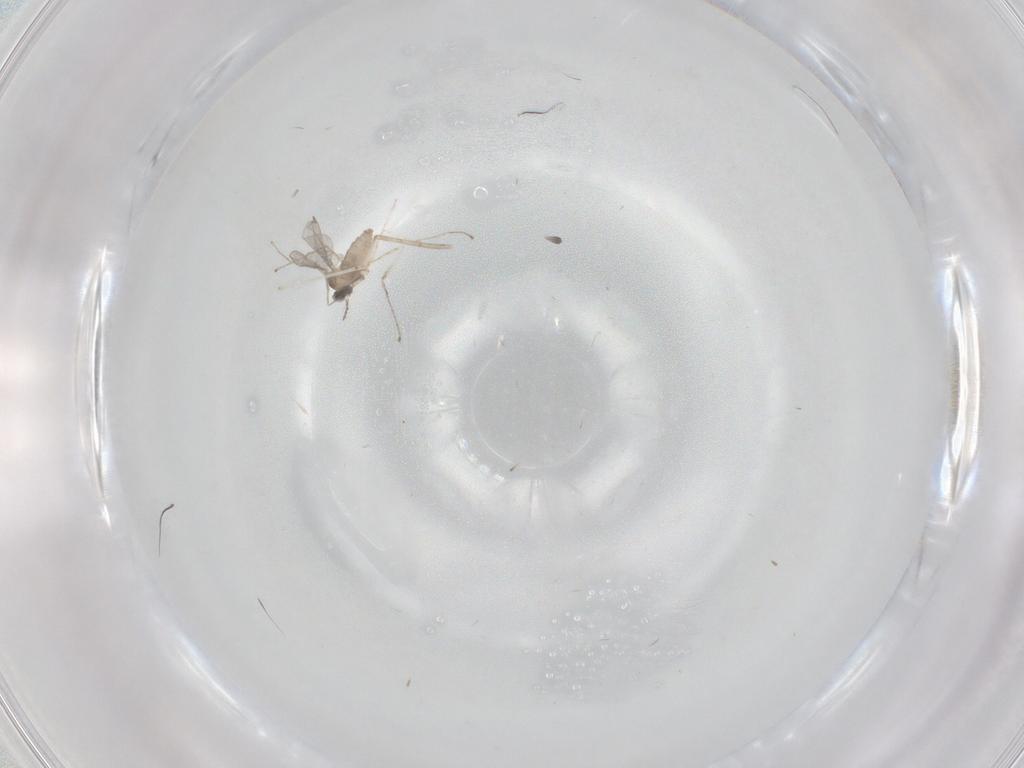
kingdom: Animalia
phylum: Arthropoda
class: Insecta
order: Diptera
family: Cecidomyiidae
